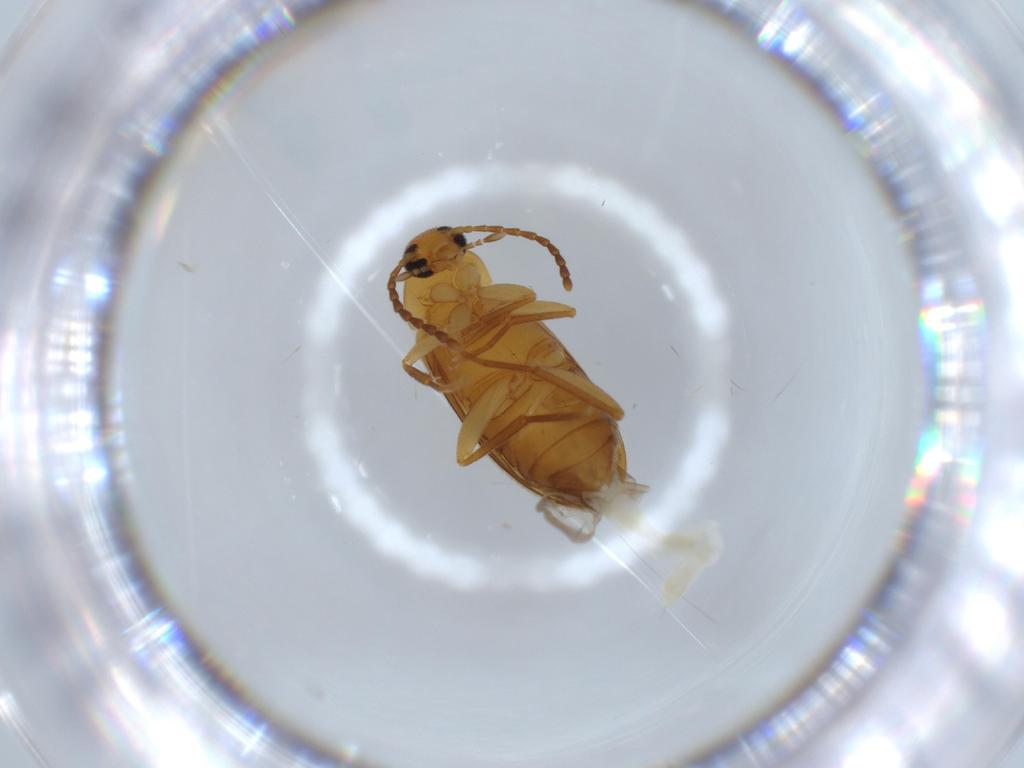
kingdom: Animalia
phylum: Arthropoda
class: Insecta
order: Coleoptera
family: Scraptiidae
